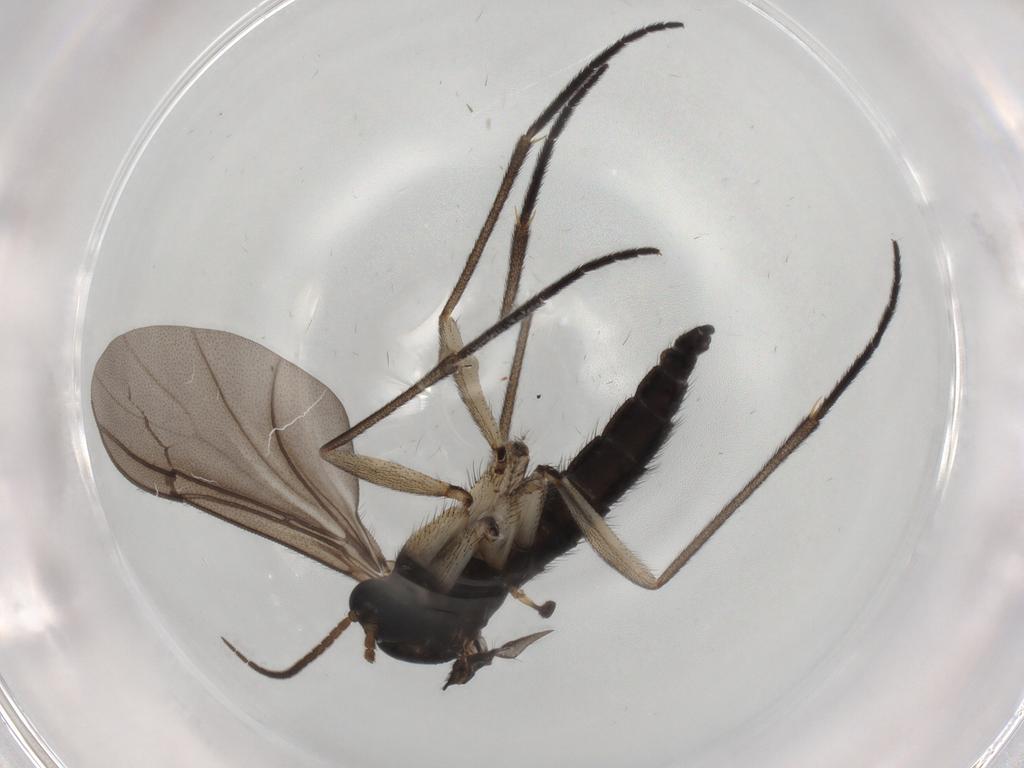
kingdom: Animalia
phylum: Arthropoda
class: Insecta
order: Diptera
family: Sciaridae
